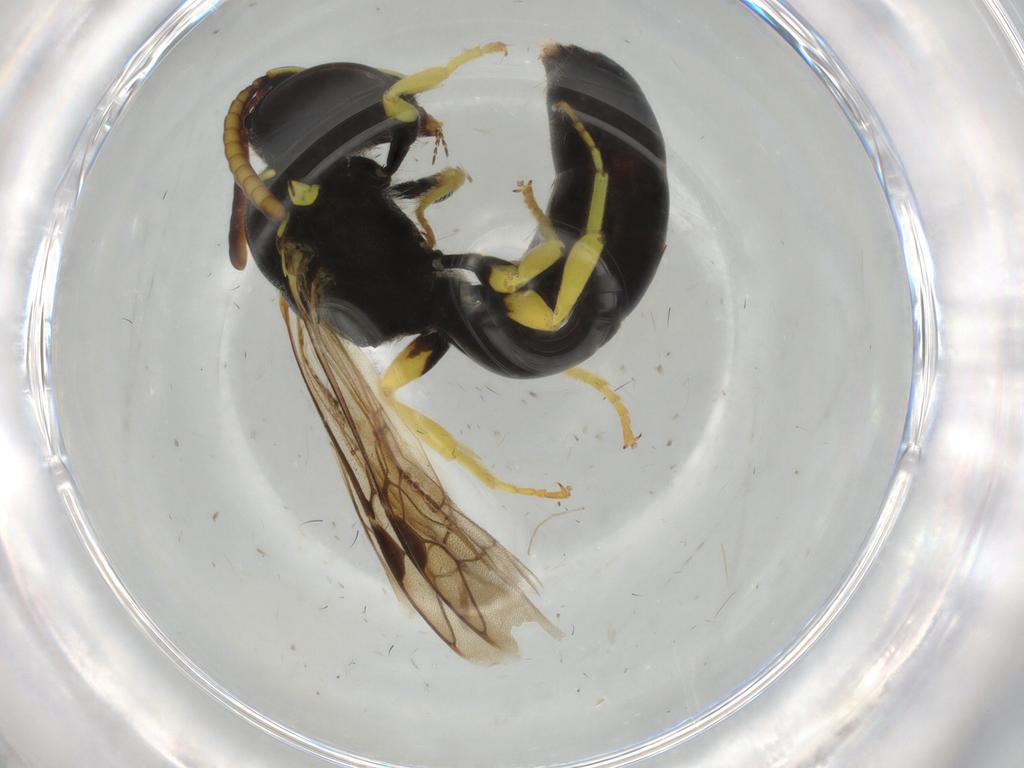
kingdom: Animalia
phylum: Arthropoda
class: Insecta
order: Hymenoptera
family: Colletidae
